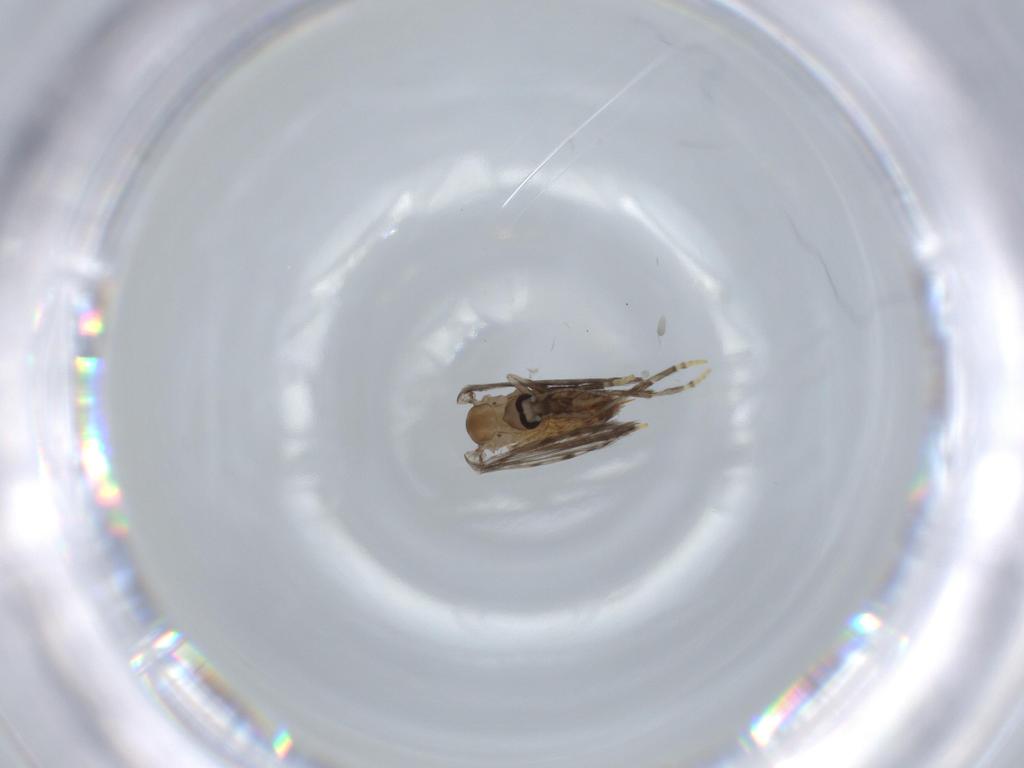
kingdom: Animalia
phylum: Arthropoda
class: Insecta
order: Diptera
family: Psychodidae
